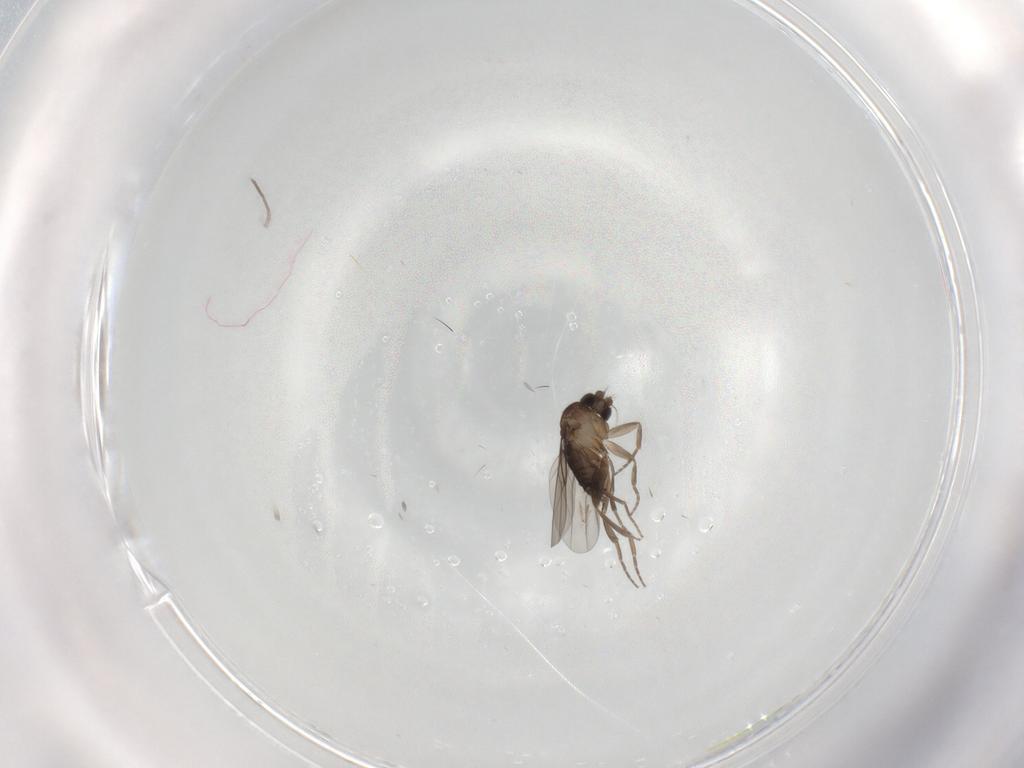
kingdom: Animalia
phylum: Arthropoda
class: Insecta
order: Diptera
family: Phoridae
